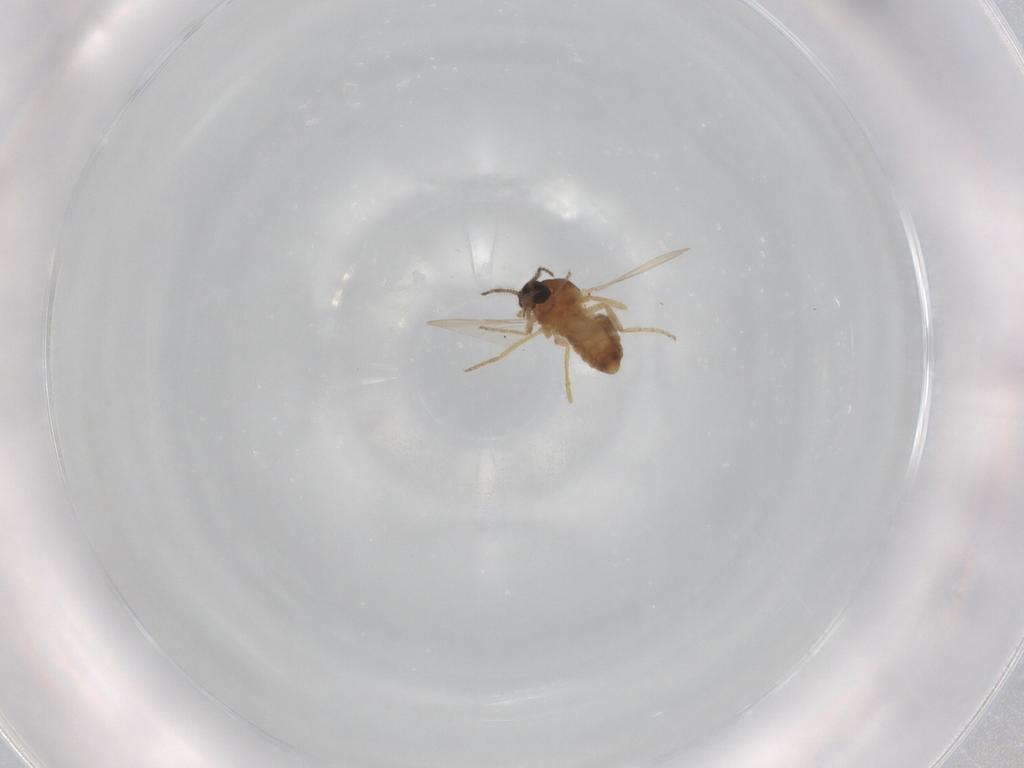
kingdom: Animalia
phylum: Arthropoda
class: Insecta
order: Diptera
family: Ceratopogonidae
